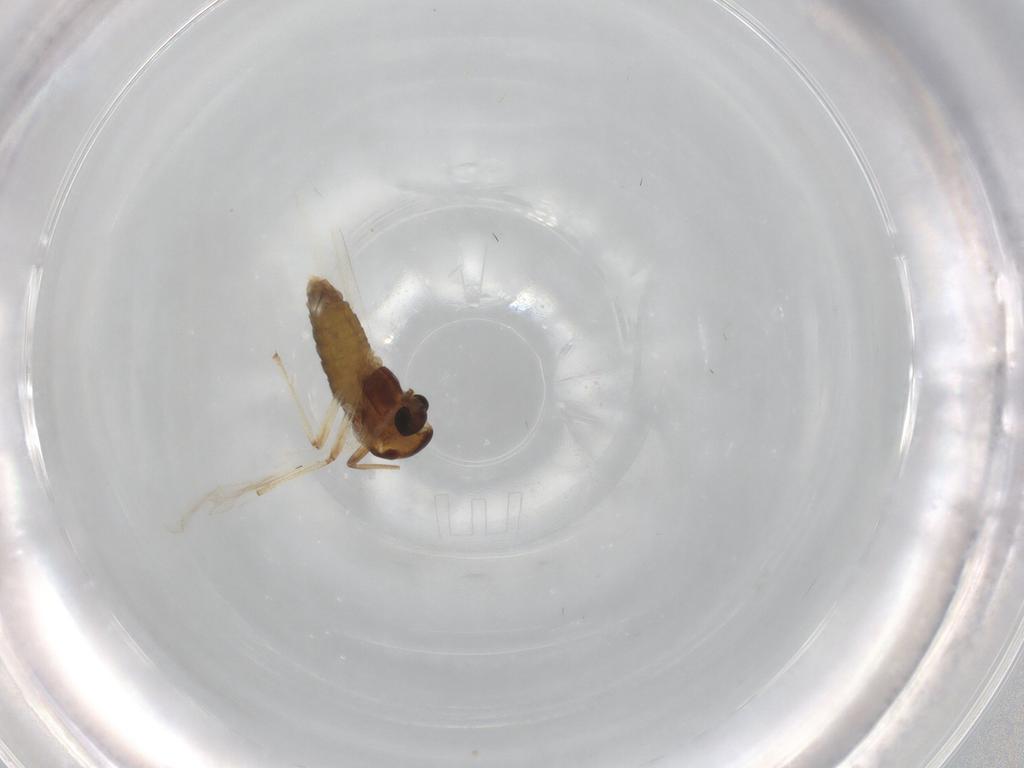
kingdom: Animalia
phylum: Arthropoda
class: Insecta
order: Diptera
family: Chironomidae
